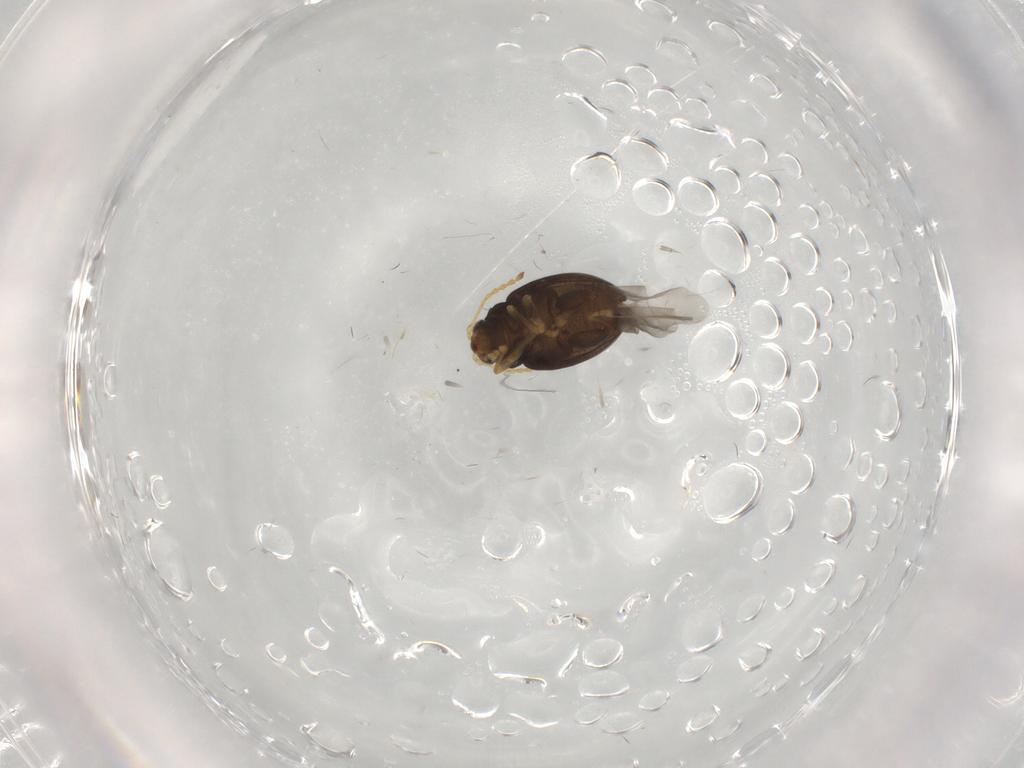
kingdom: Animalia
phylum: Arthropoda
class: Insecta
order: Coleoptera
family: Chrysomelidae
